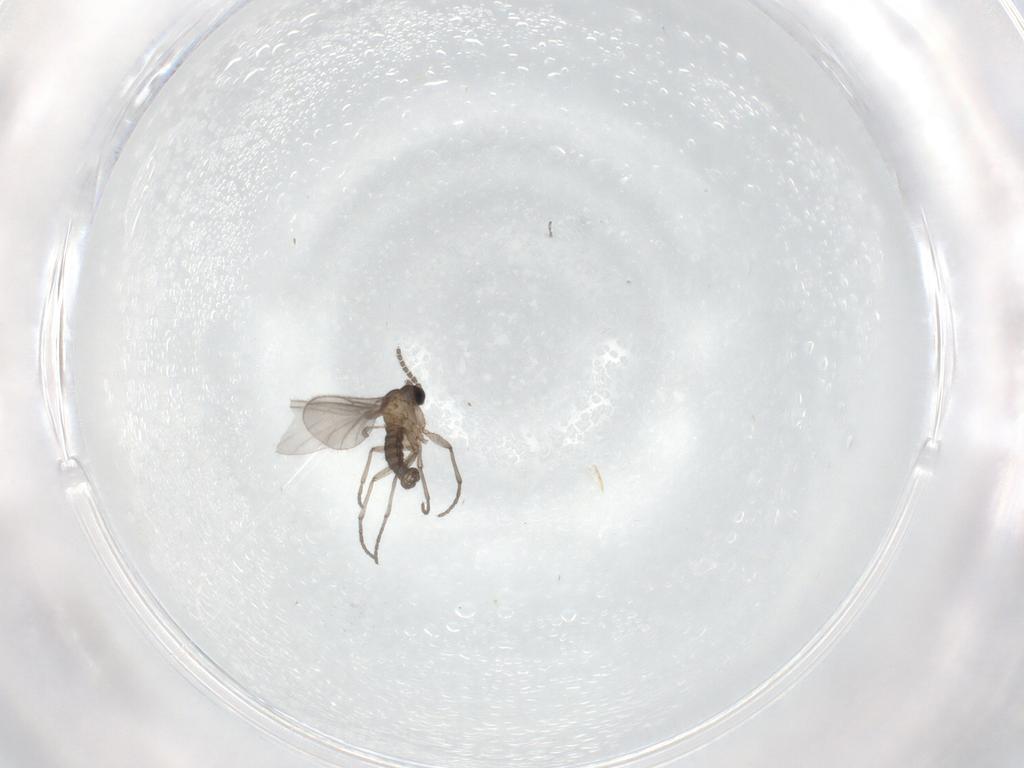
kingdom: Animalia
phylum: Arthropoda
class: Insecta
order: Diptera
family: Sciaridae
